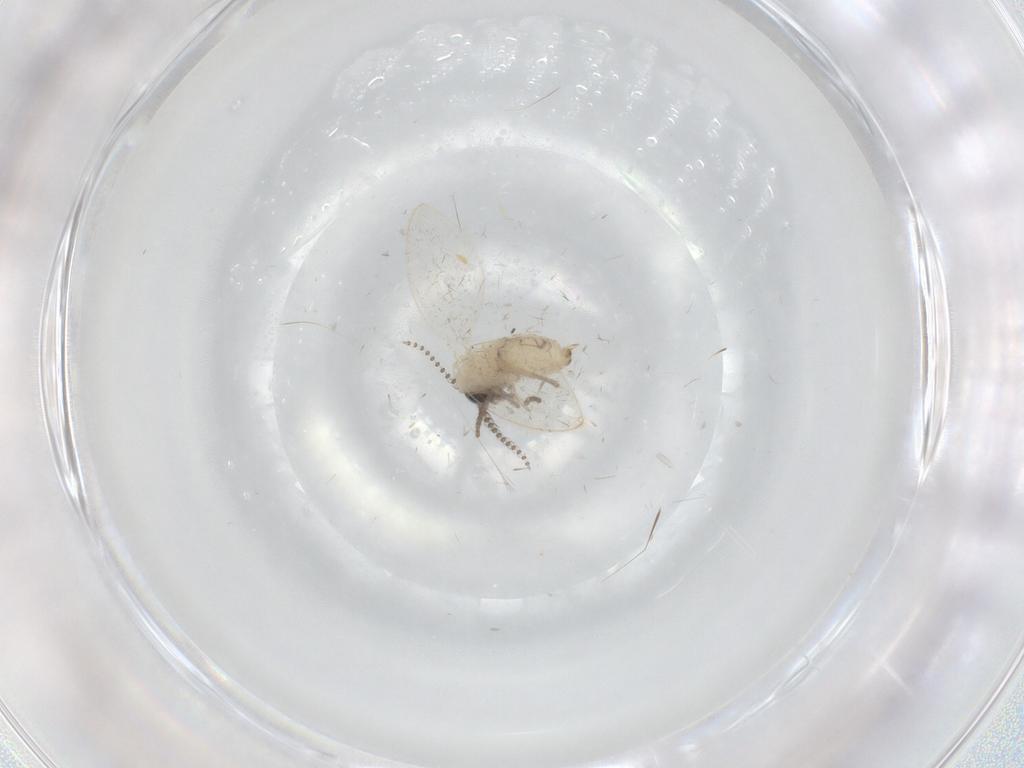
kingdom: Animalia
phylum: Arthropoda
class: Insecta
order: Diptera
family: Psychodidae
